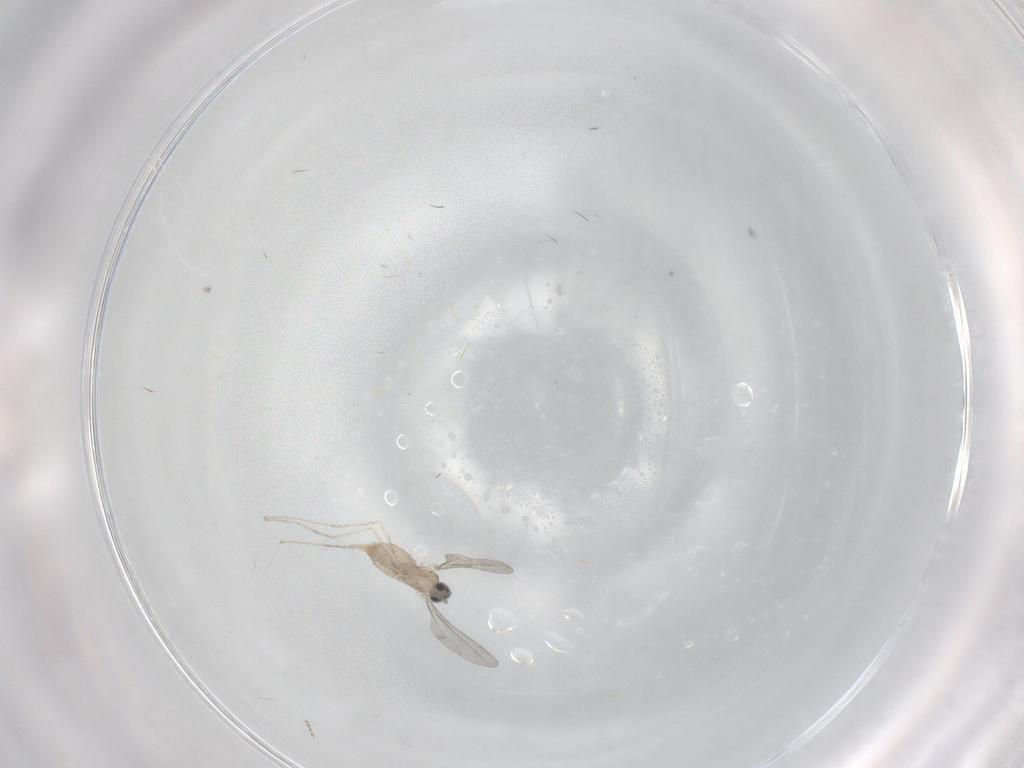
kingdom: Animalia
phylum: Arthropoda
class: Insecta
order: Diptera
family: Cecidomyiidae
